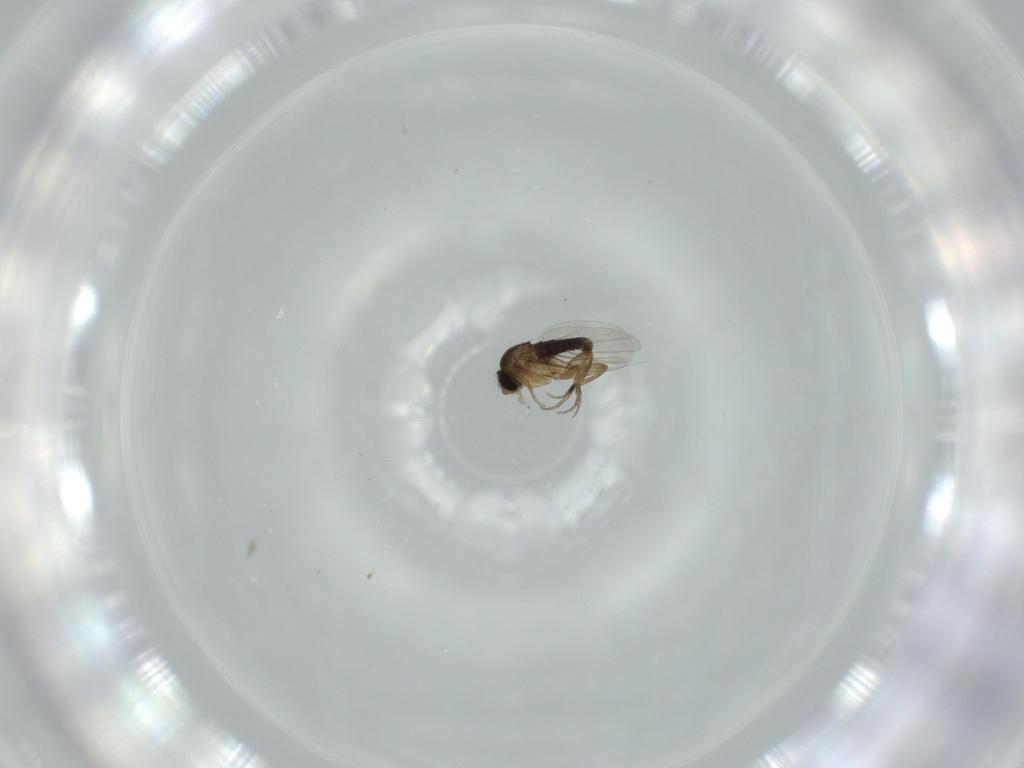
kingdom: Animalia
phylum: Arthropoda
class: Insecta
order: Diptera
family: Phoridae
